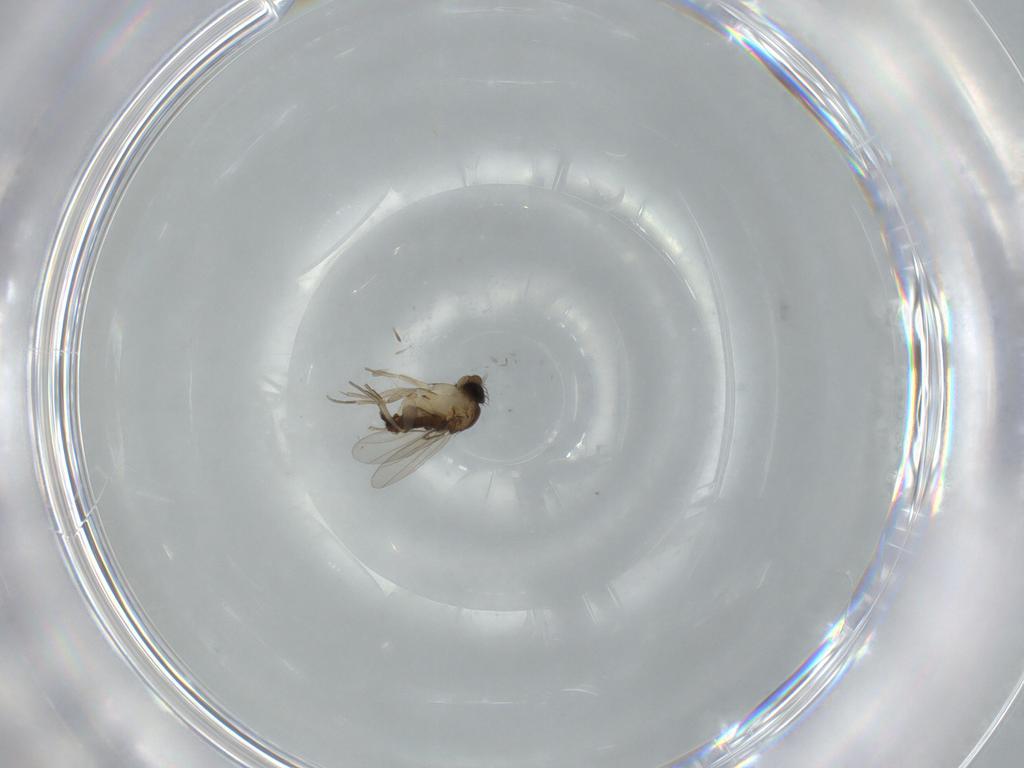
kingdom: Animalia
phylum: Arthropoda
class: Insecta
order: Diptera
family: Phoridae
